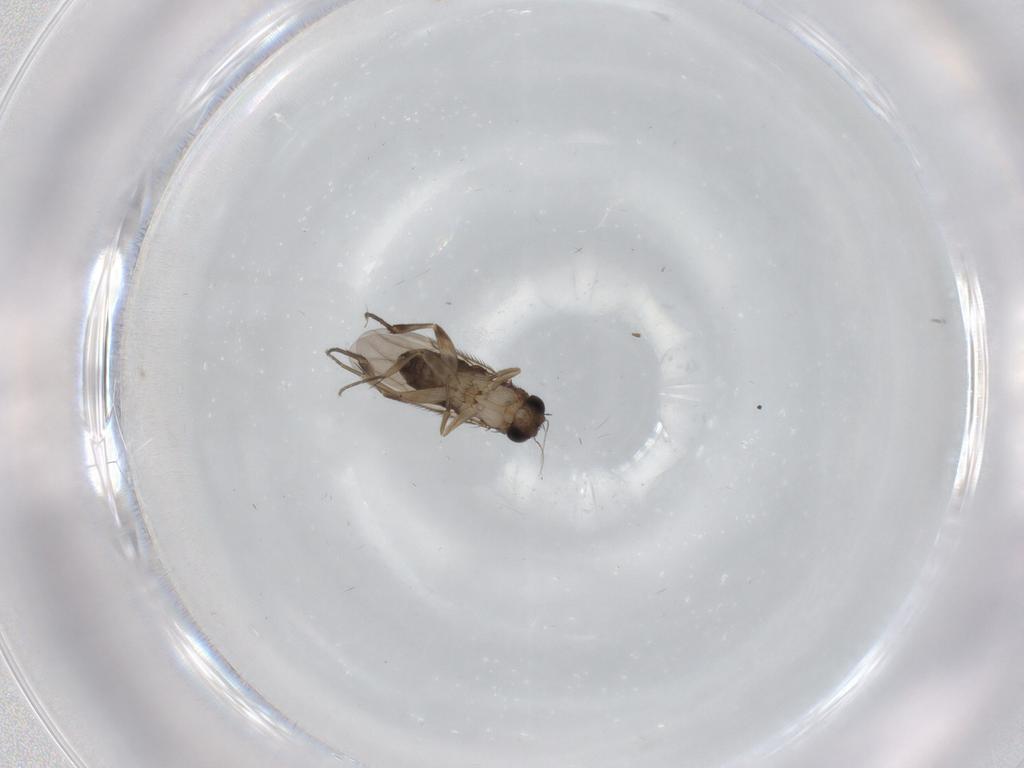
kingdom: Animalia
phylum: Arthropoda
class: Insecta
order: Diptera
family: Phoridae
